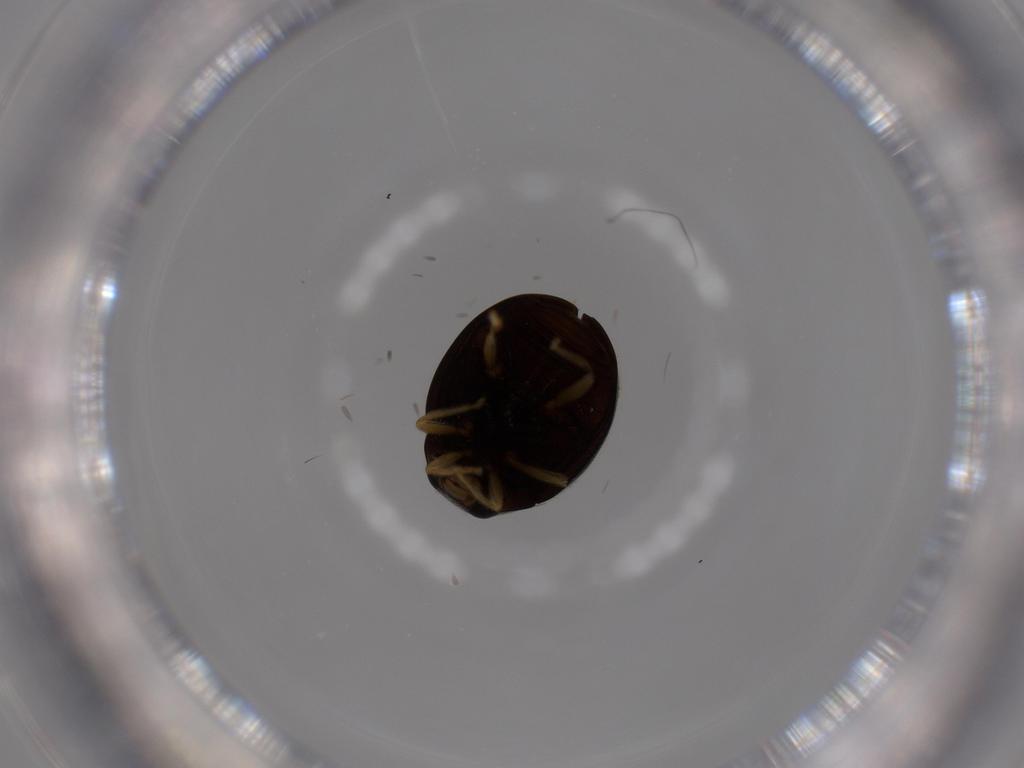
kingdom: Animalia
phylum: Arthropoda
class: Insecta
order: Coleoptera
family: Coccinellidae
